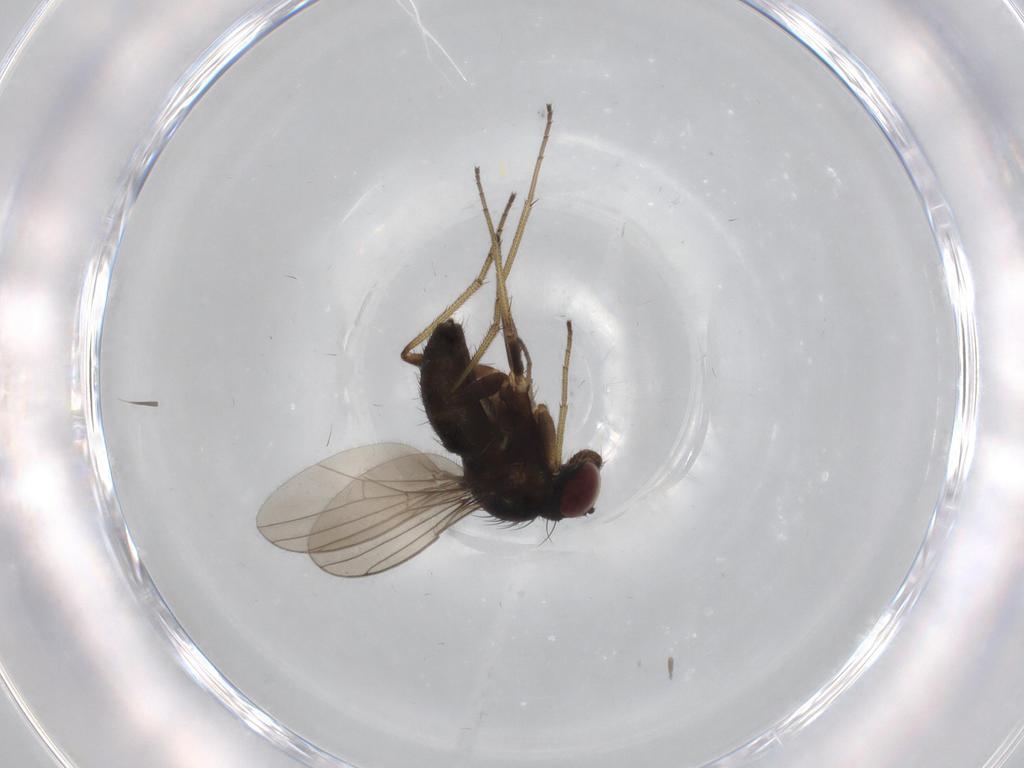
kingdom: Animalia
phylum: Arthropoda
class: Insecta
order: Diptera
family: Dolichopodidae
